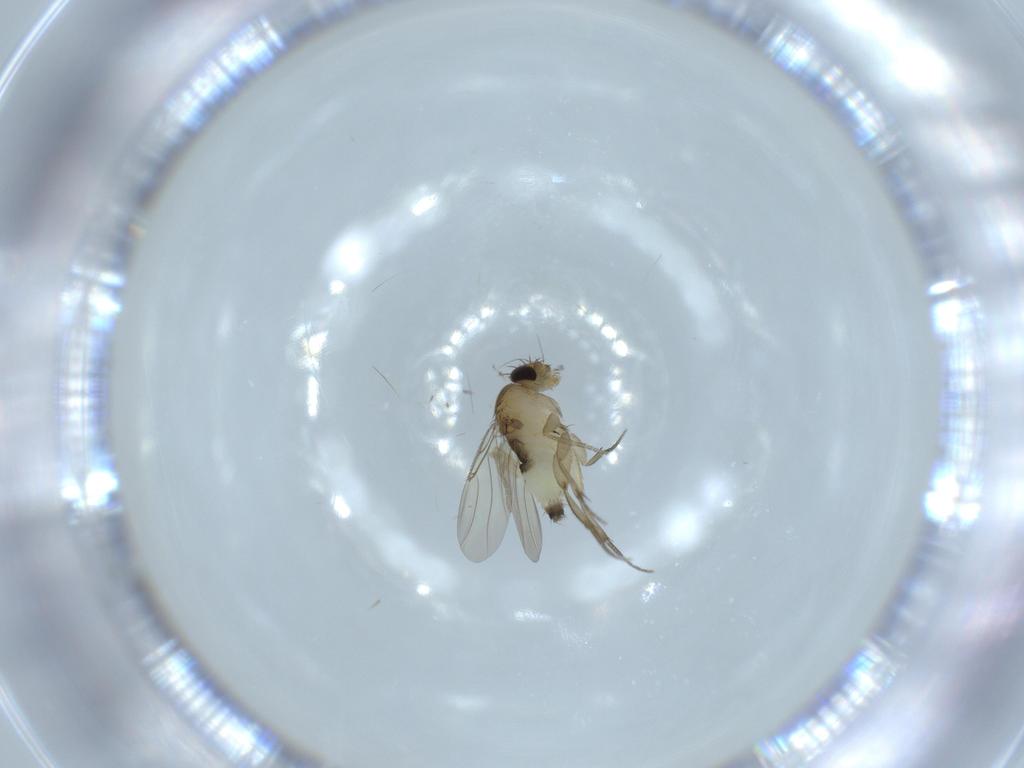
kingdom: Animalia
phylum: Arthropoda
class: Insecta
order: Diptera
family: Phoridae
